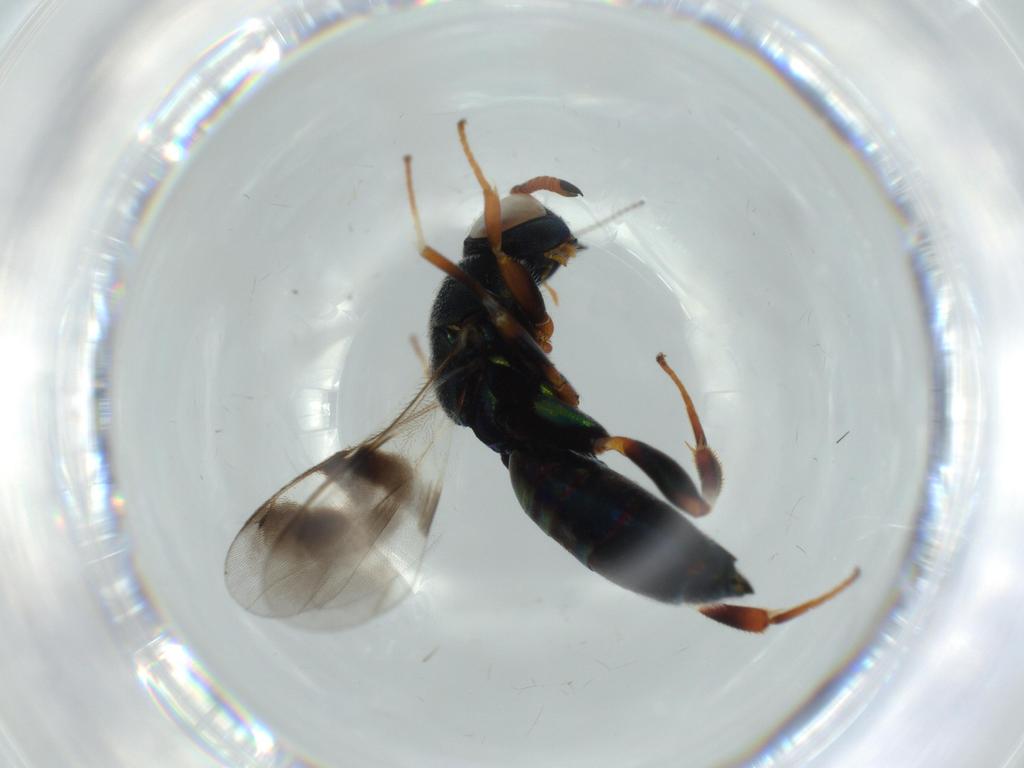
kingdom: Animalia
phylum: Arthropoda
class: Insecta
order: Hymenoptera
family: Cleonyminae
